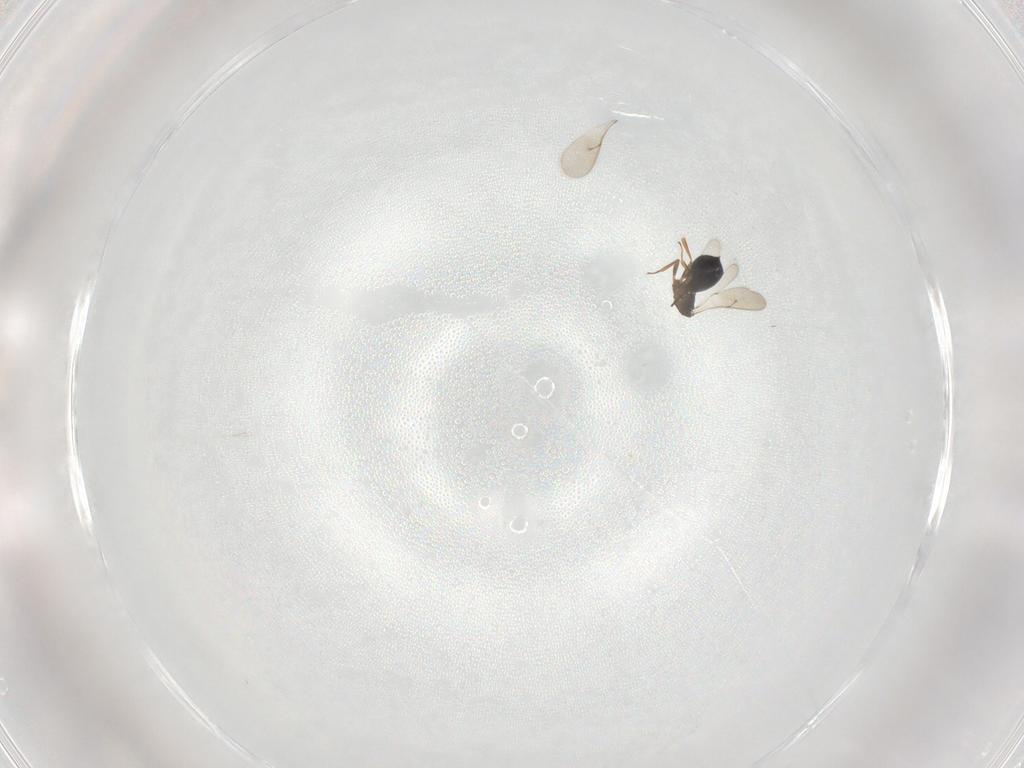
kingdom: Animalia
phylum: Arthropoda
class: Insecta
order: Hymenoptera
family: Scelionidae
